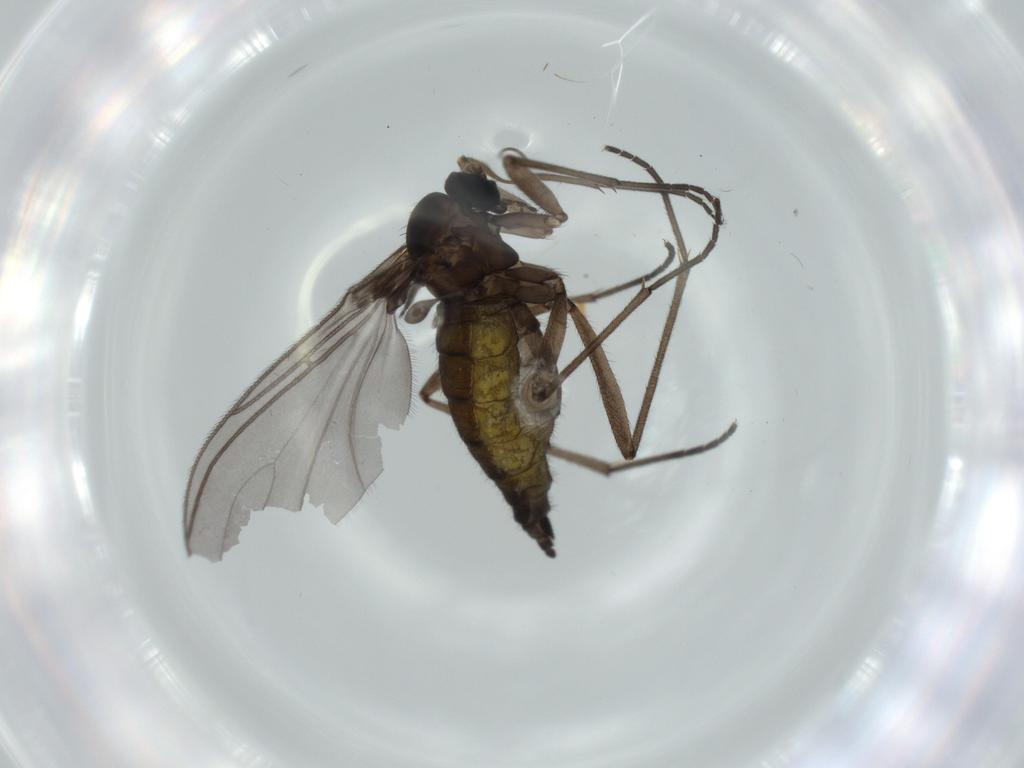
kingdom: Animalia
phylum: Arthropoda
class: Insecta
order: Diptera
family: Sciaridae
